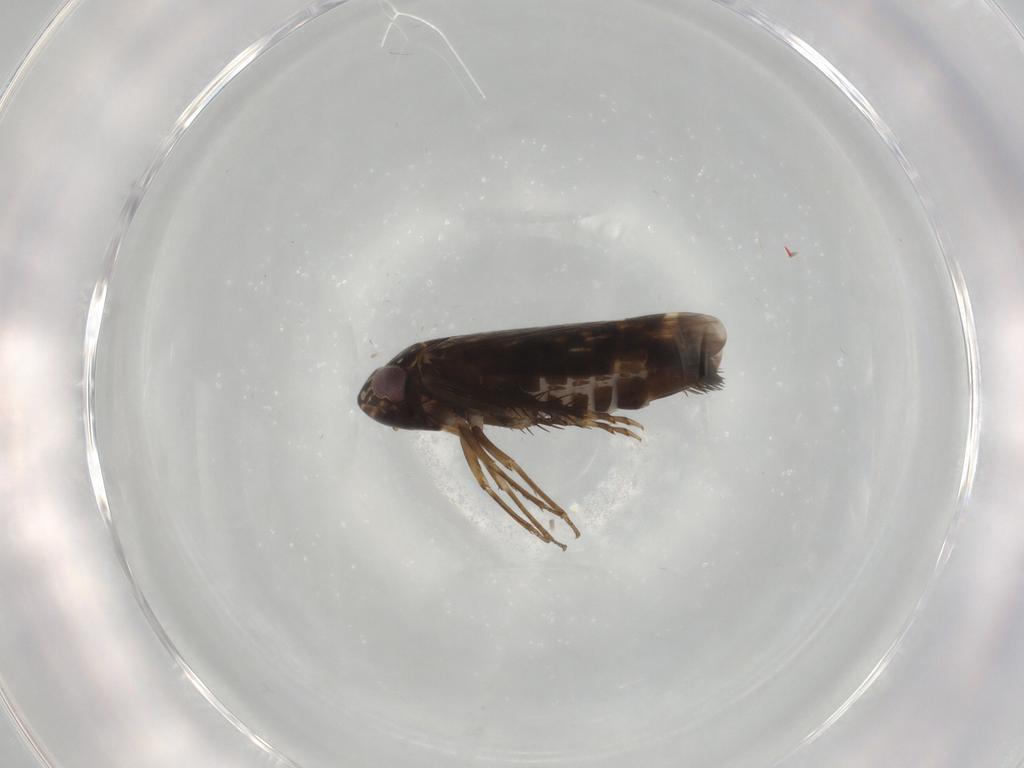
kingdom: Animalia
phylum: Arthropoda
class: Insecta
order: Hemiptera
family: Cicadellidae
